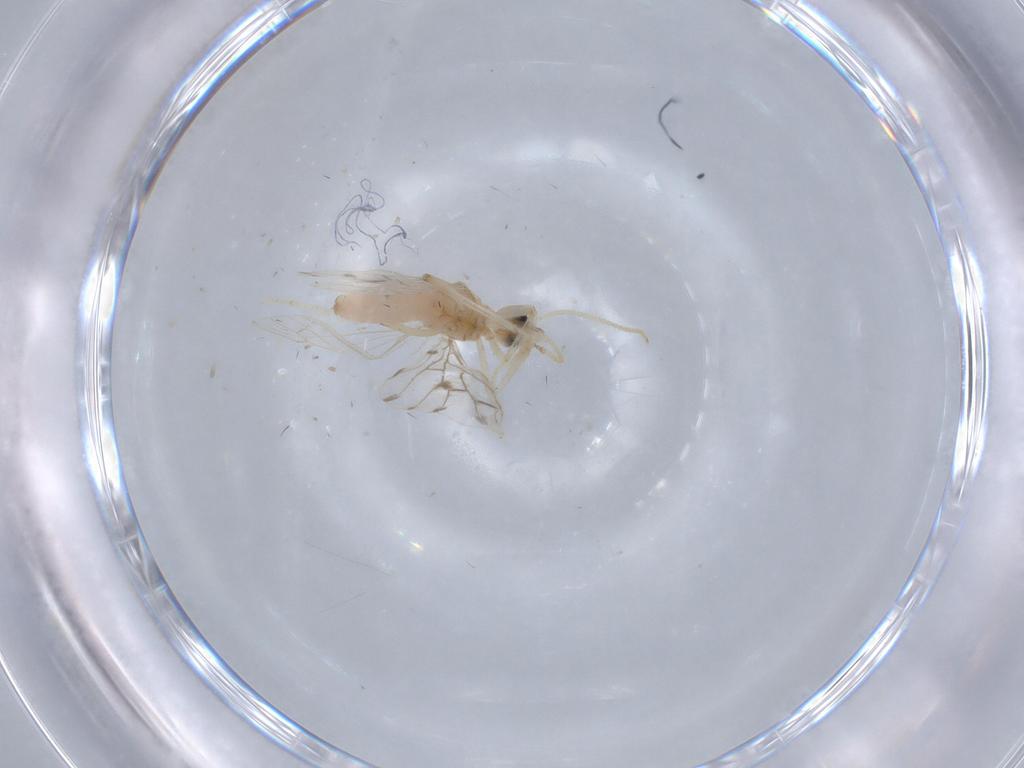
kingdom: Animalia
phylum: Arthropoda
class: Insecta
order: Neuroptera
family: Coniopterygidae
